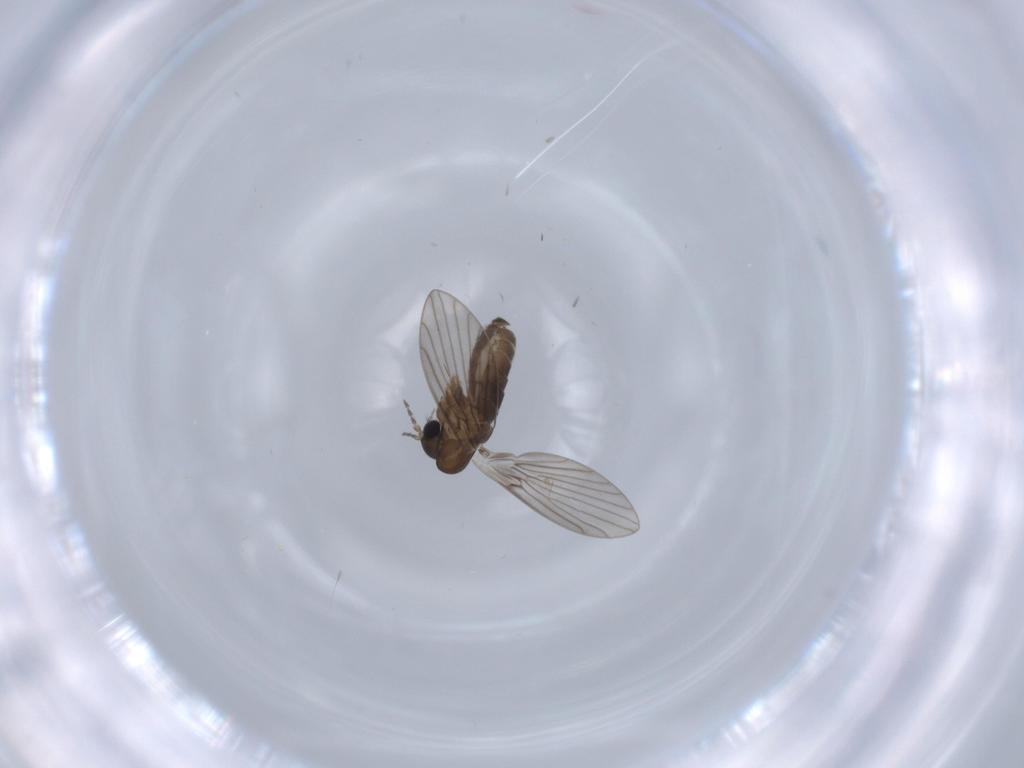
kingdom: Animalia
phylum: Arthropoda
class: Insecta
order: Diptera
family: Psychodidae
